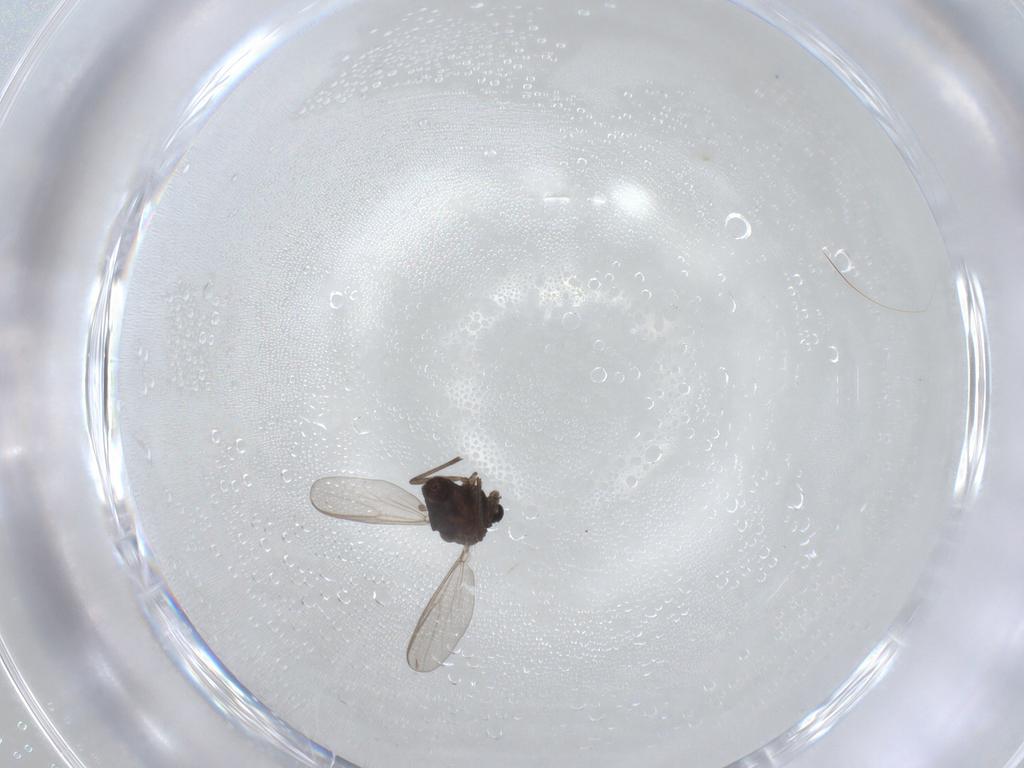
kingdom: Animalia
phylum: Arthropoda
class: Insecta
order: Diptera
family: Chironomidae
